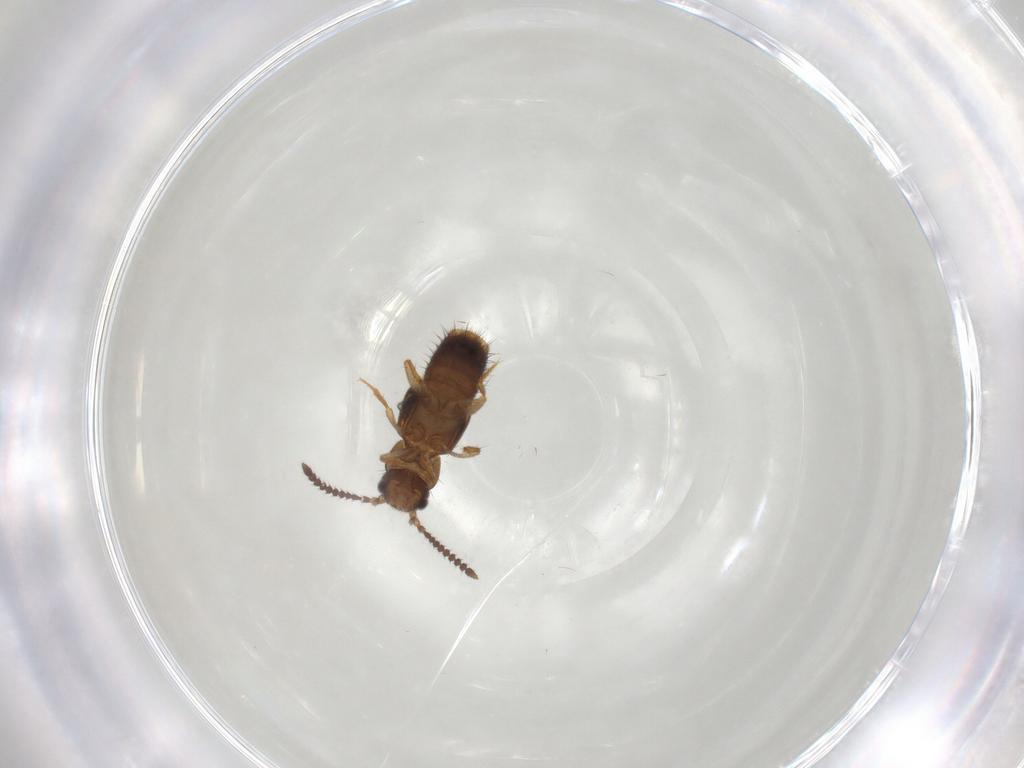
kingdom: Animalia
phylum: Arthropoda
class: Insecta
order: Coleoptera
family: Staphylinidae
